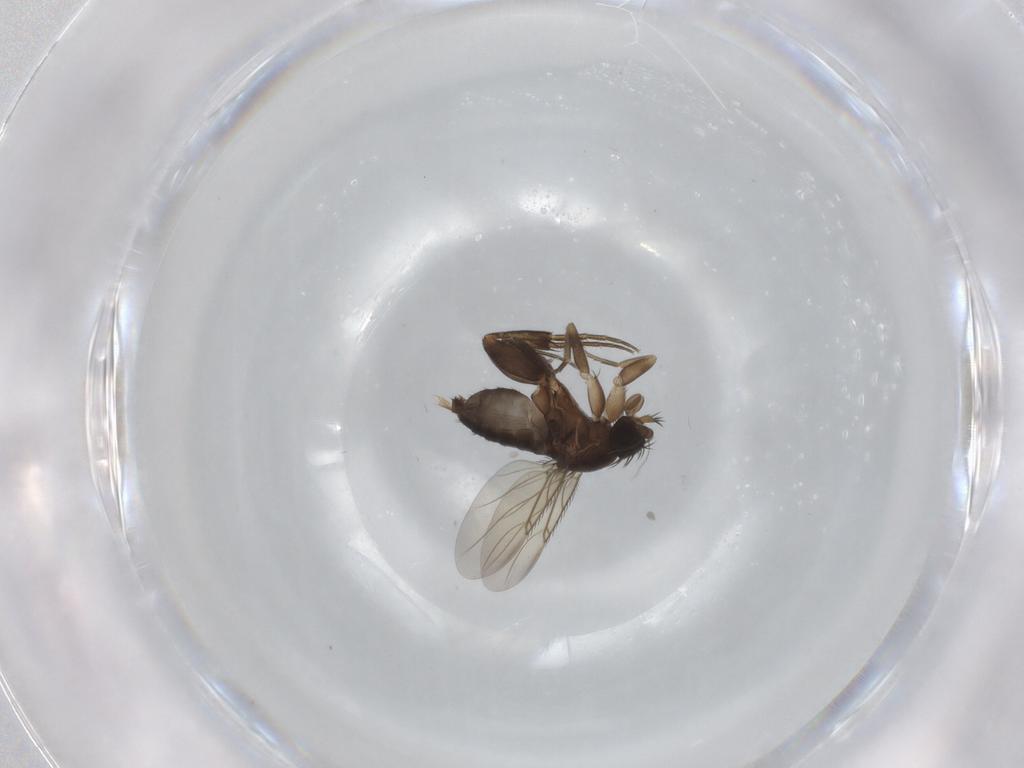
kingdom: Animalia
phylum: Arthropoda
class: Insecta
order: Diptera
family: Phoridae
